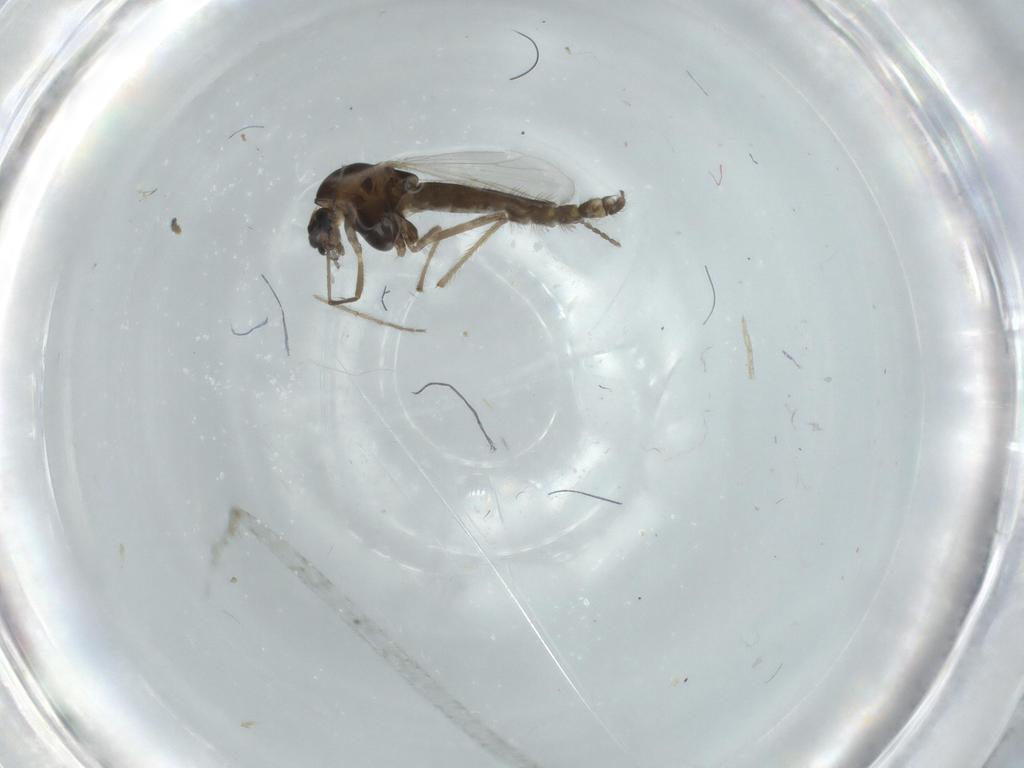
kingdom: Animalia
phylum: Arthropoda
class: Insecta
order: Diptera
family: Chironomidae
